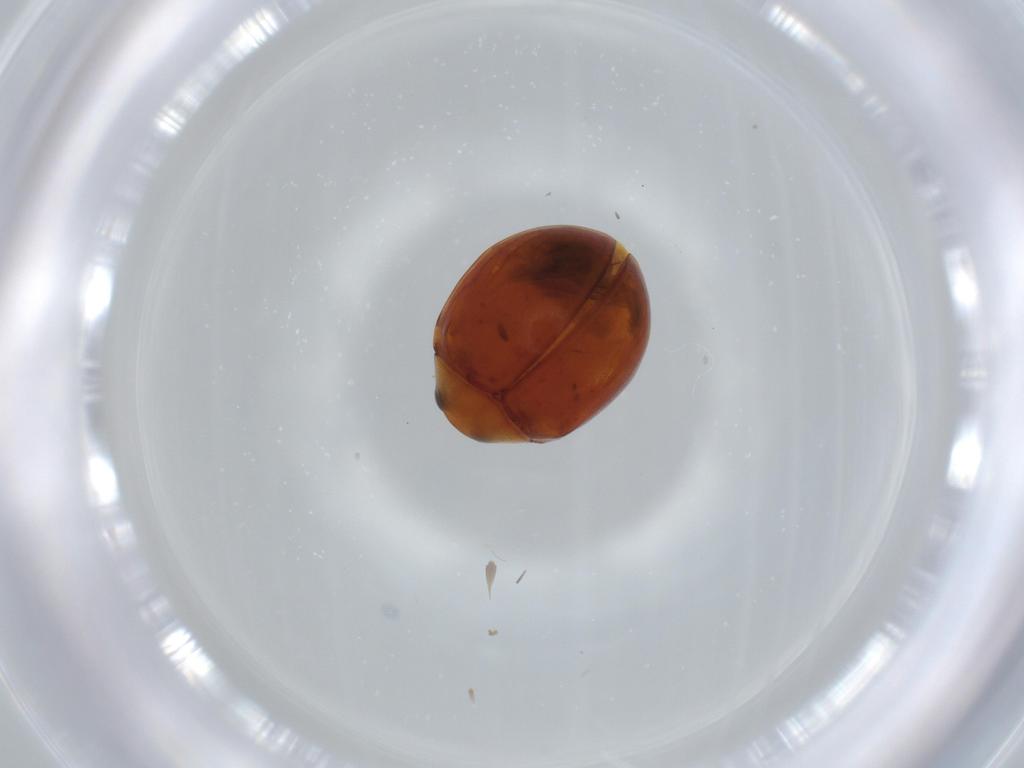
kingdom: Animalia
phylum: Arthropoda
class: Insecta
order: Coleoptera
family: Coccinellidae
